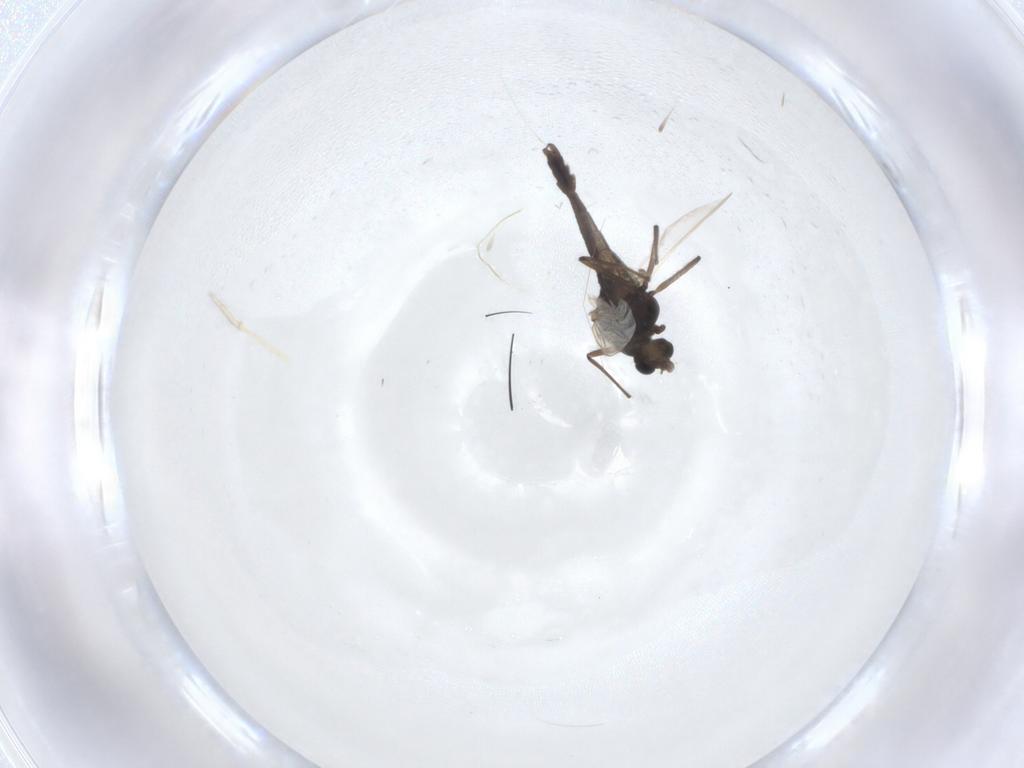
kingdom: Animalia
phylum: Arthropoda
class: Insecta
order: Diptera
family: Chironomidae
